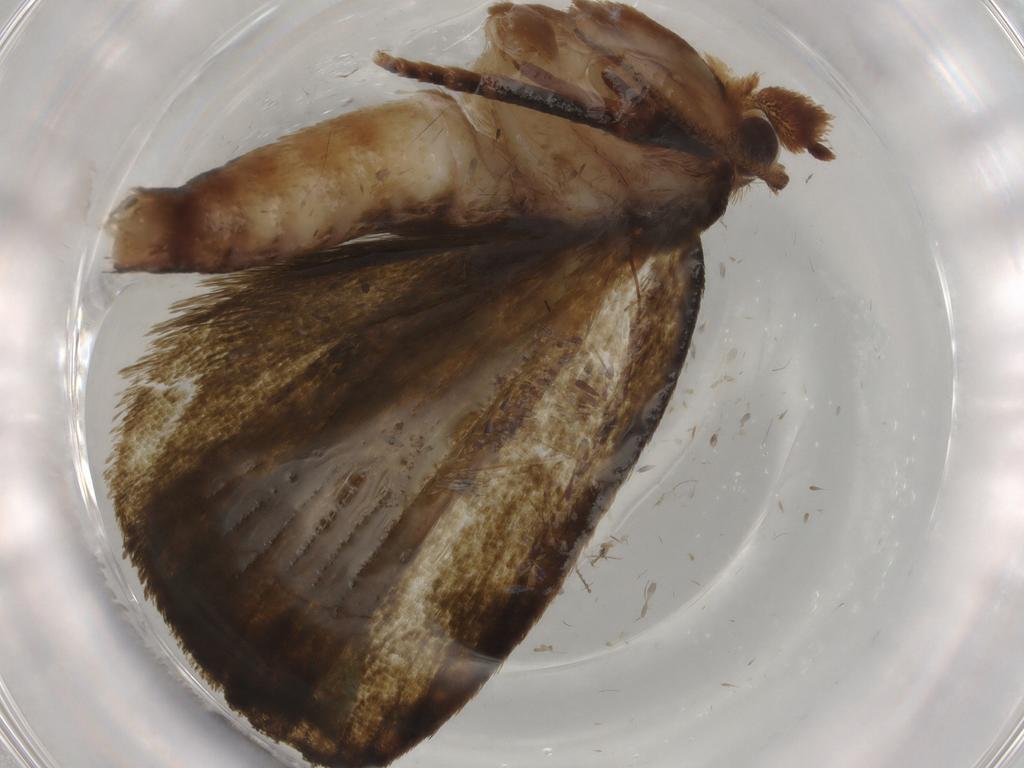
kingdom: Animalia
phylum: Arthropoda
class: Insecta
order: Lepidoptera
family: Geometridae
